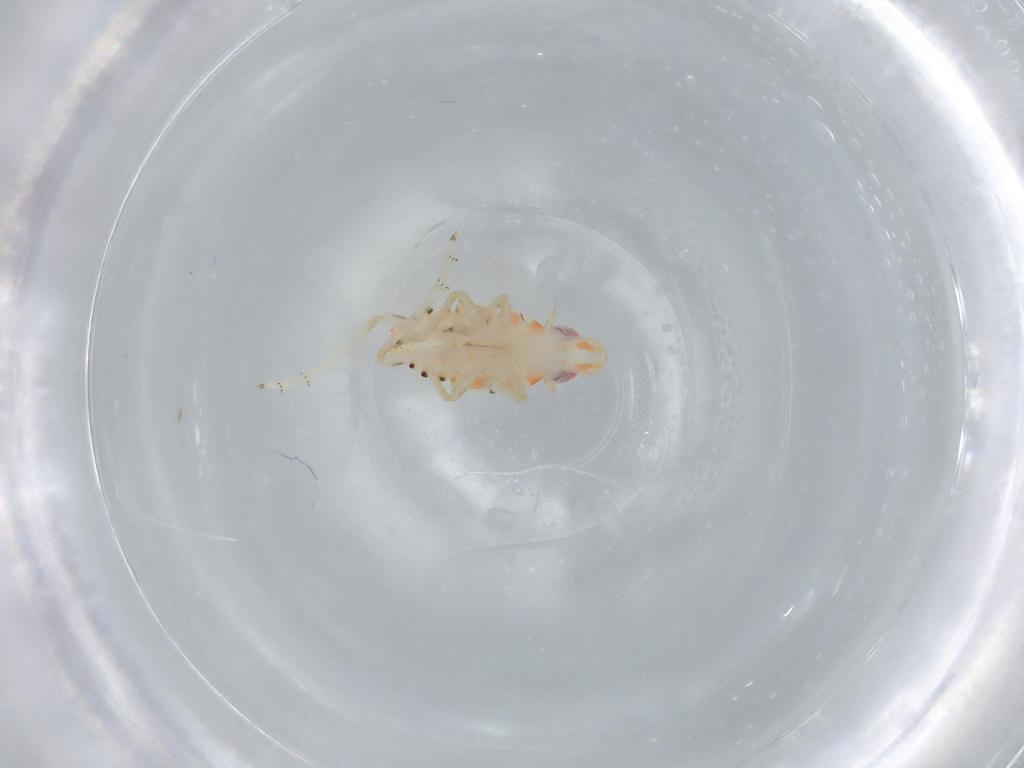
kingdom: Animalia
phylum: Arthropoda
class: Insecta
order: Hemiptera
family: Tropiduchidae
